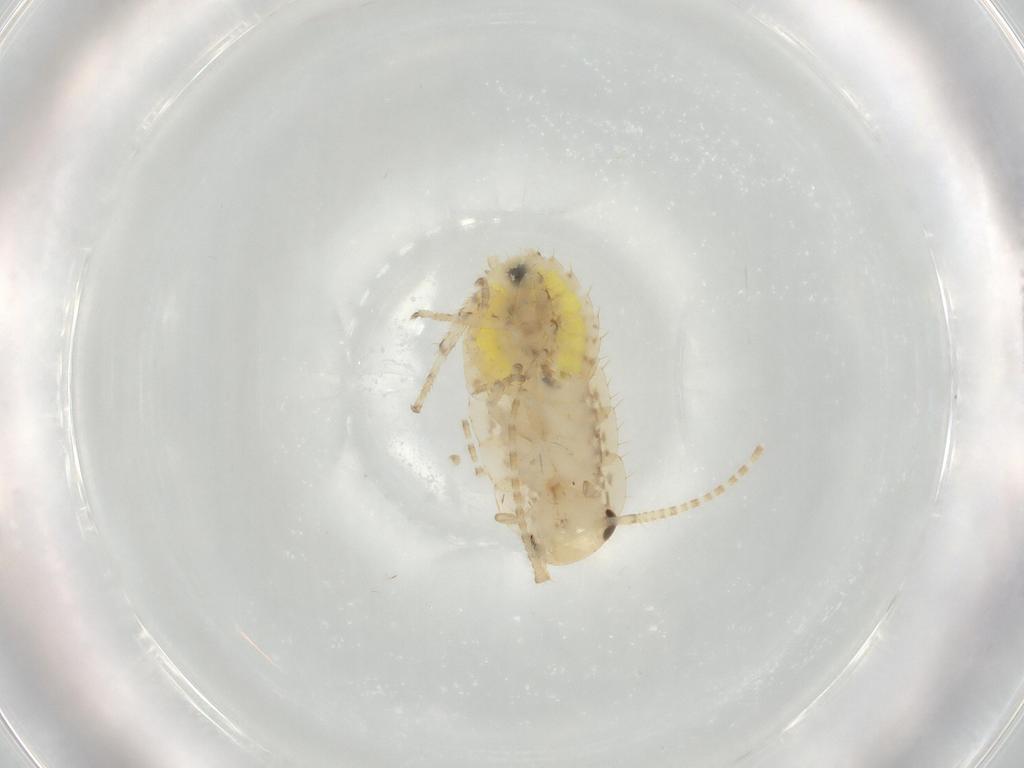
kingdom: Animalia
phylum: Arthropoda
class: Insecta
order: Blattodea
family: Ectobiidae
